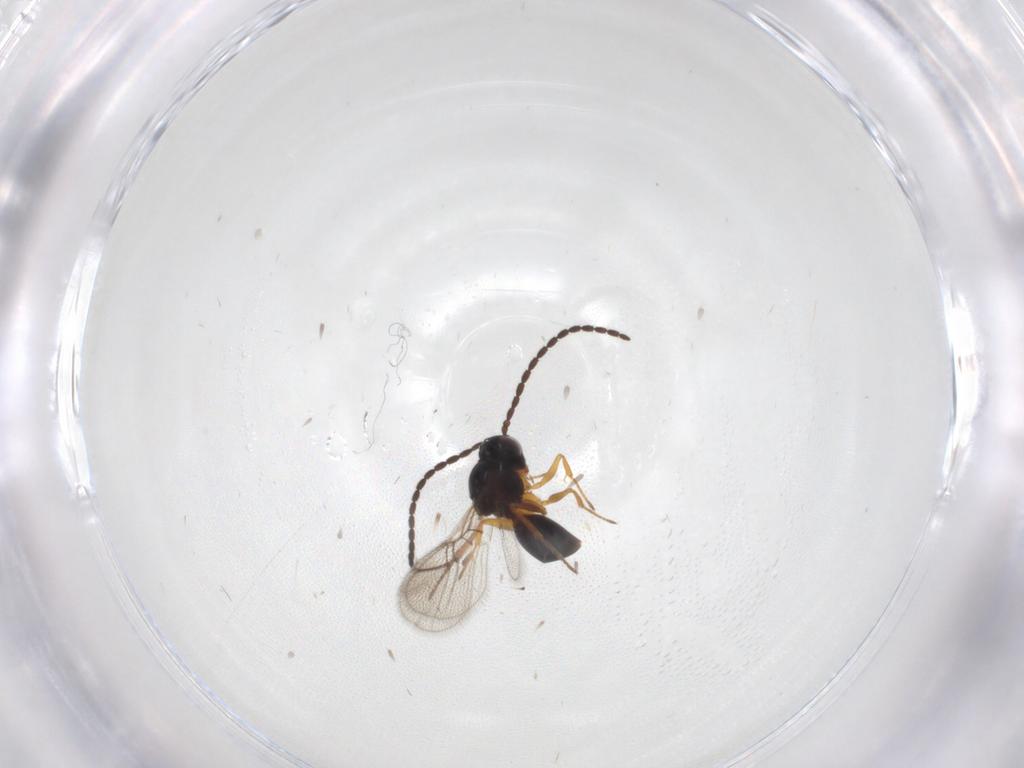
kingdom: Animalia
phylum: Arthropoda
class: Insecta
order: Hymenoptera
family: Figitidae
